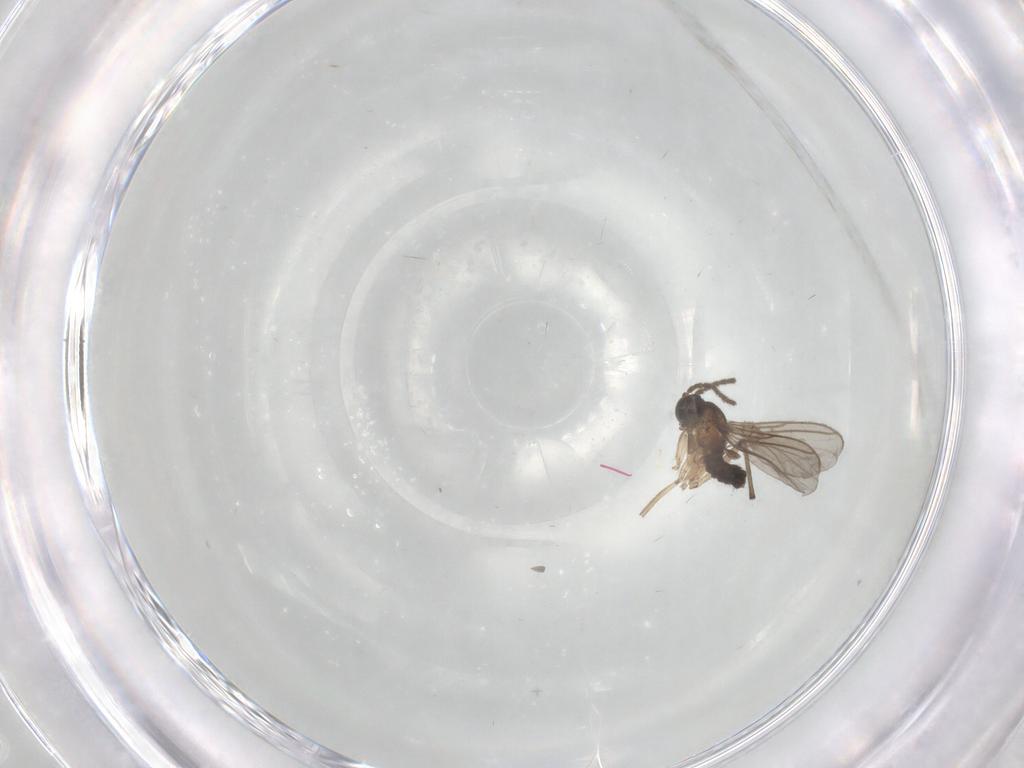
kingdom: Animalia
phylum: Arthropoda
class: Insecta
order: Diptera
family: Sciaridae
